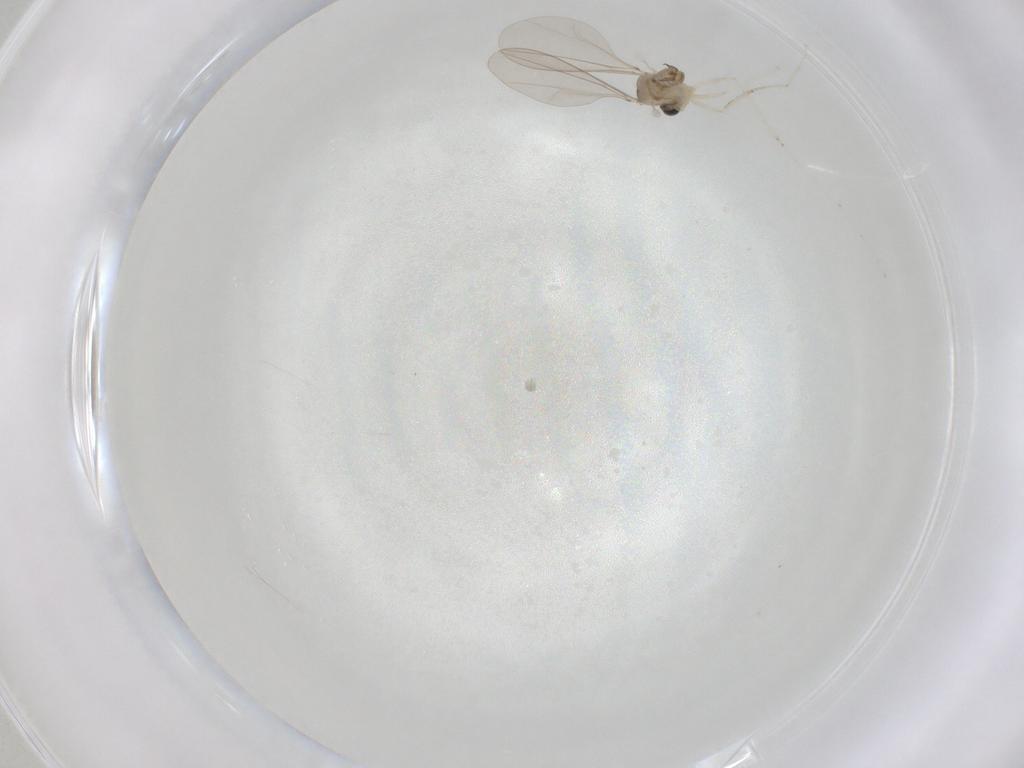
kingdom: Animalia
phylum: Arthropoda
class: Insecta
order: Diptera
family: Cecidomyiidae
